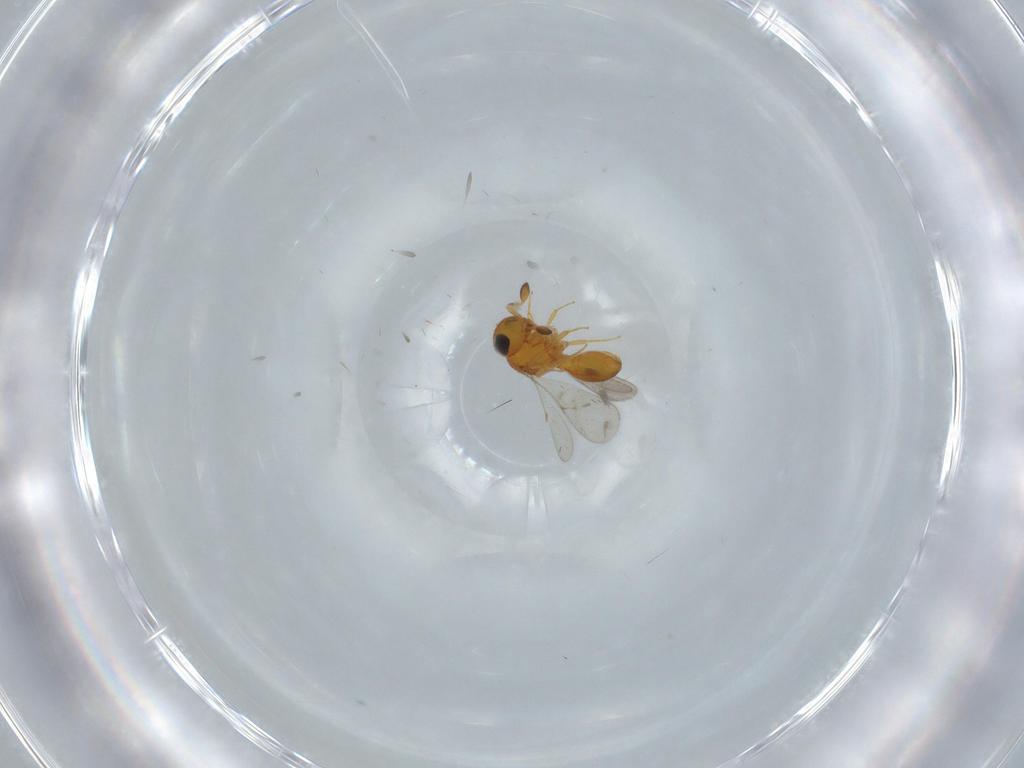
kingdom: Animalia
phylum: Arthropoda
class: Insecta
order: Hymenoptera
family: Scelionidae
